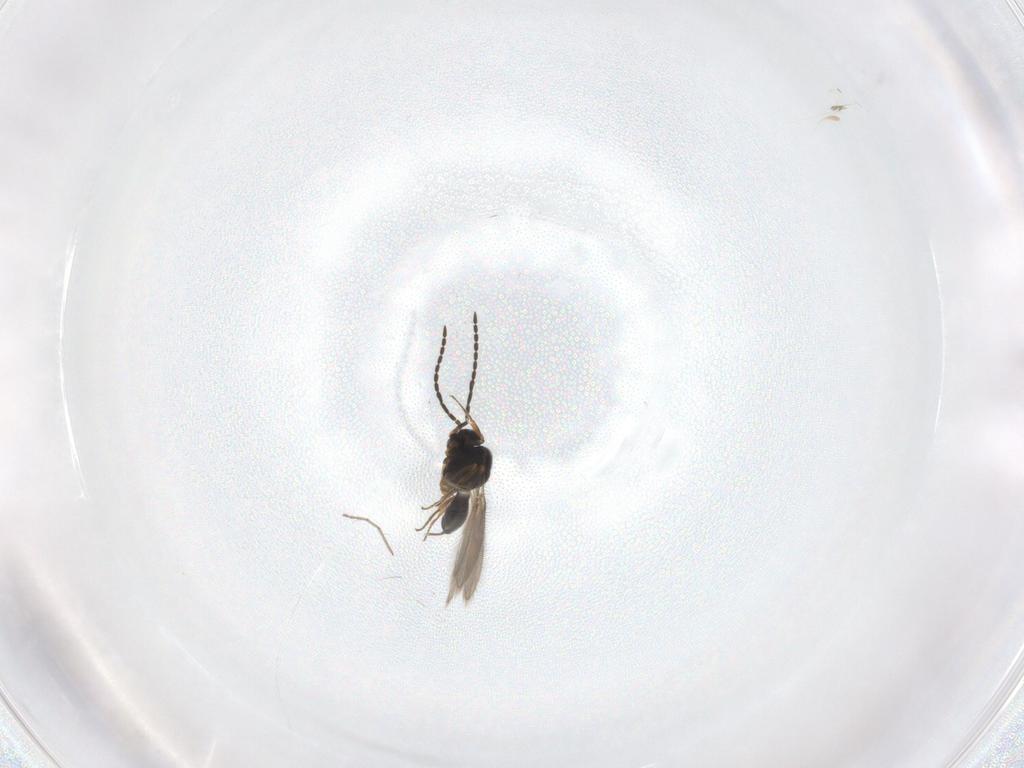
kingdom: Animalia
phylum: Arthropoda
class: Insecta
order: Hymenoptera
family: Scelionidae
